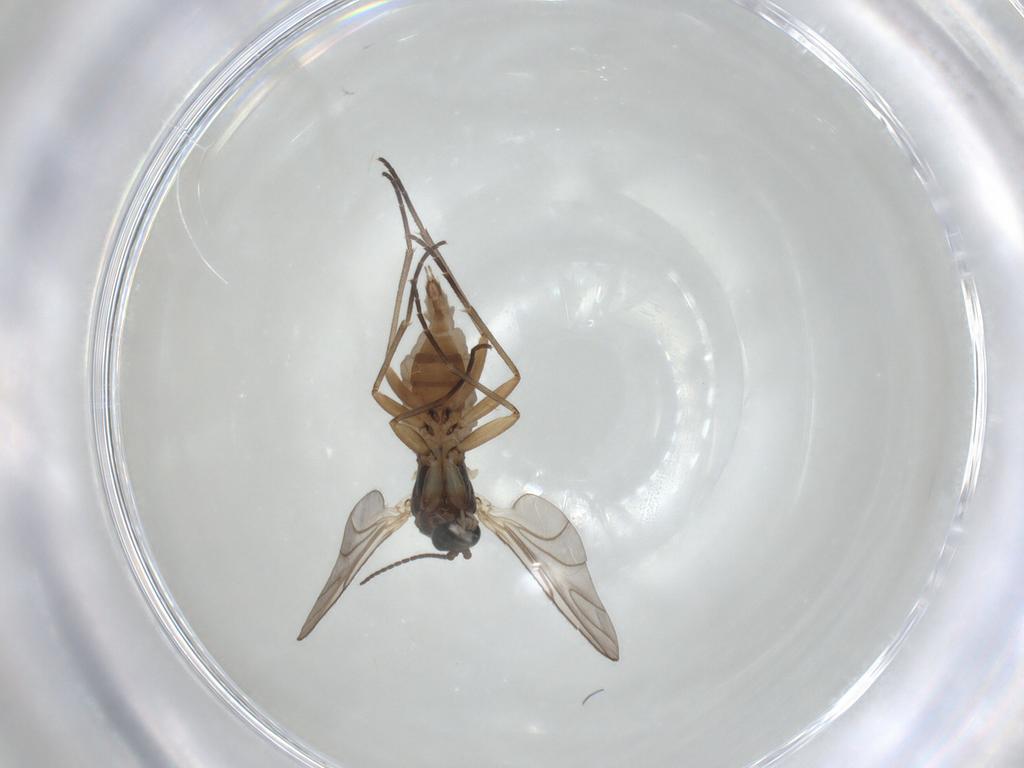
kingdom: Animalia
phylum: Arthropoda
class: Insecta
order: Diptera
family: Sciaridae
